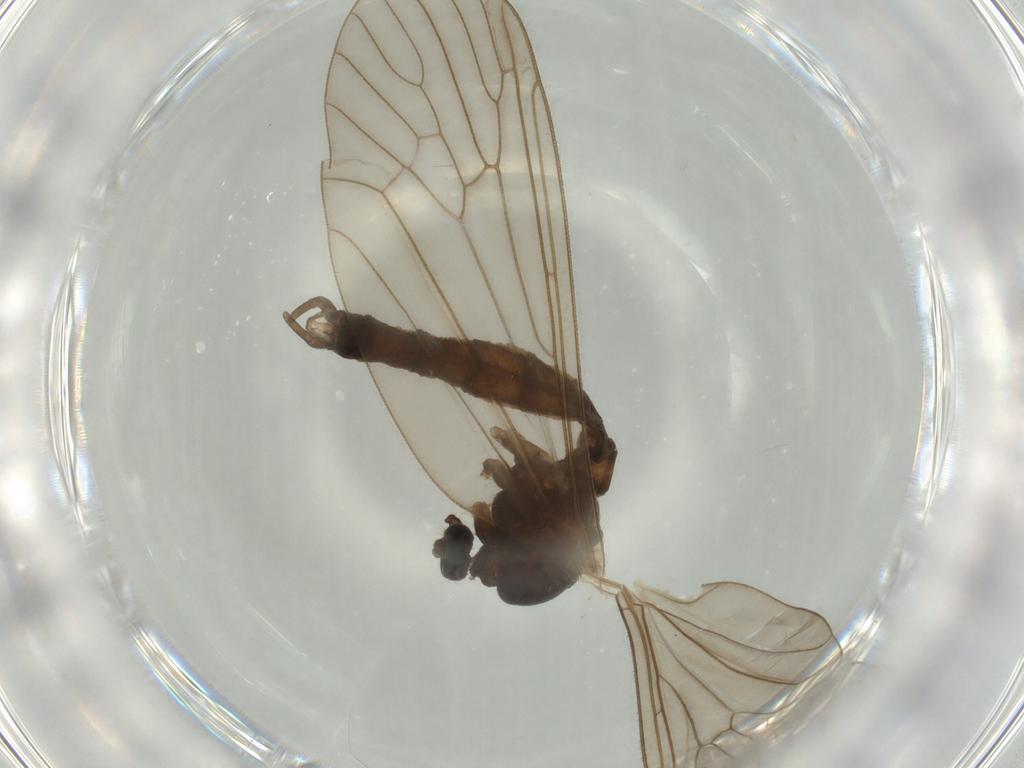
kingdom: Animalia
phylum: Arthropoda
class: Insecta
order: Diptera
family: Trichoceridae
